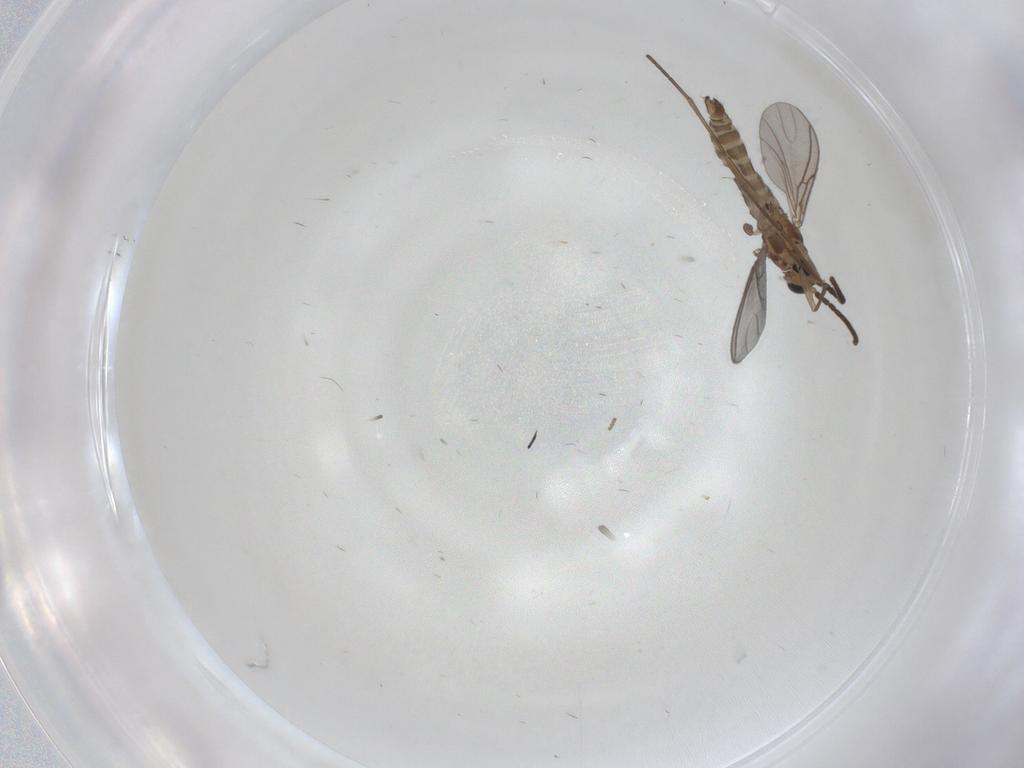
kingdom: Animalia
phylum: Arthropoda
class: Insecta
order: Diptera
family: Sciaridae
